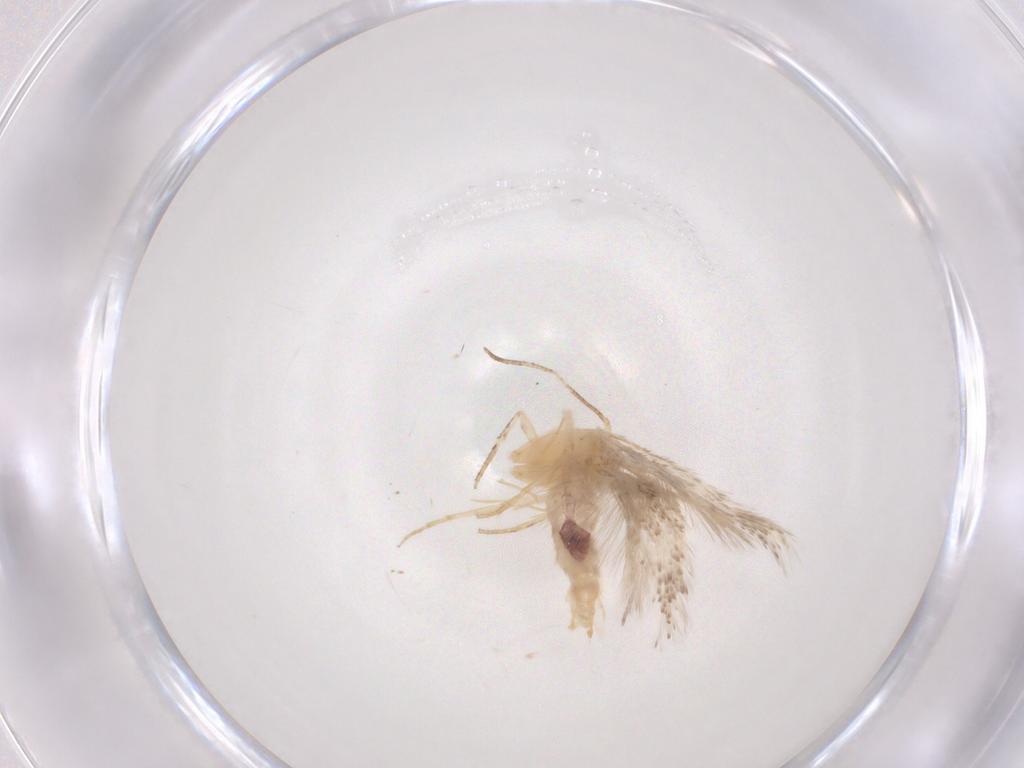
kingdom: Animalia
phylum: Arthropoda
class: Insecta
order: Lepidoptera
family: Gelechiidae
